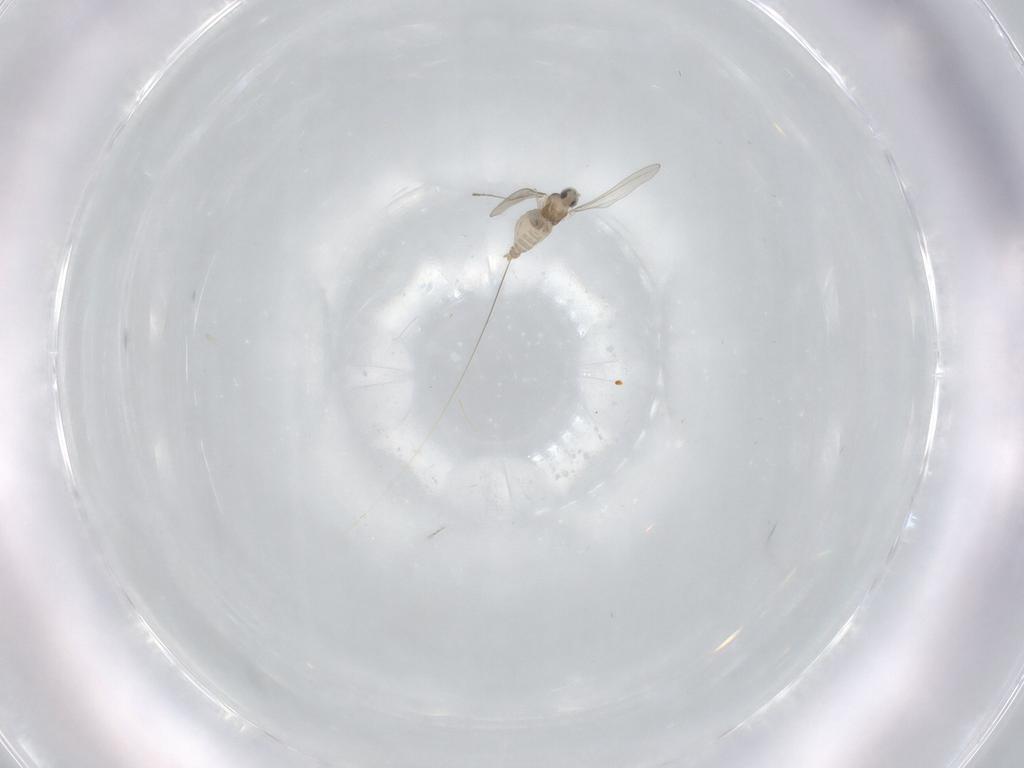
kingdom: Animalia
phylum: Arthropoda
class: Insecta
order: Diptera
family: Cecidomyiidae
